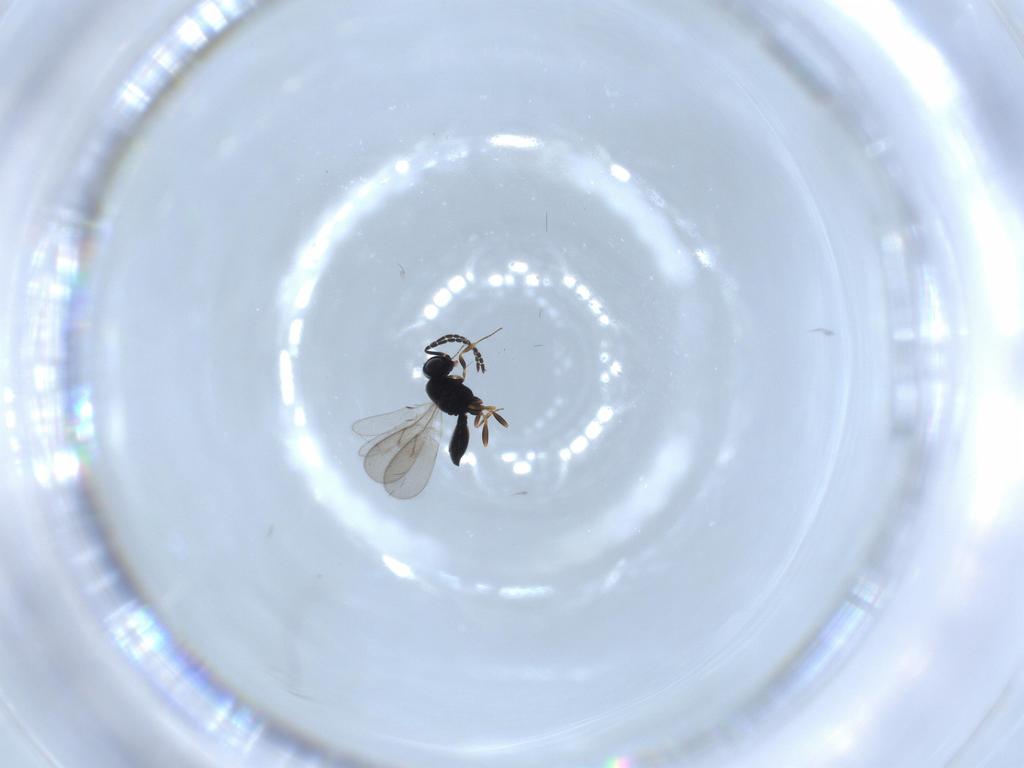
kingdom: Animalia
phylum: Arthropoda
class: Insecta
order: Hymenoptera
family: Scelionidae
